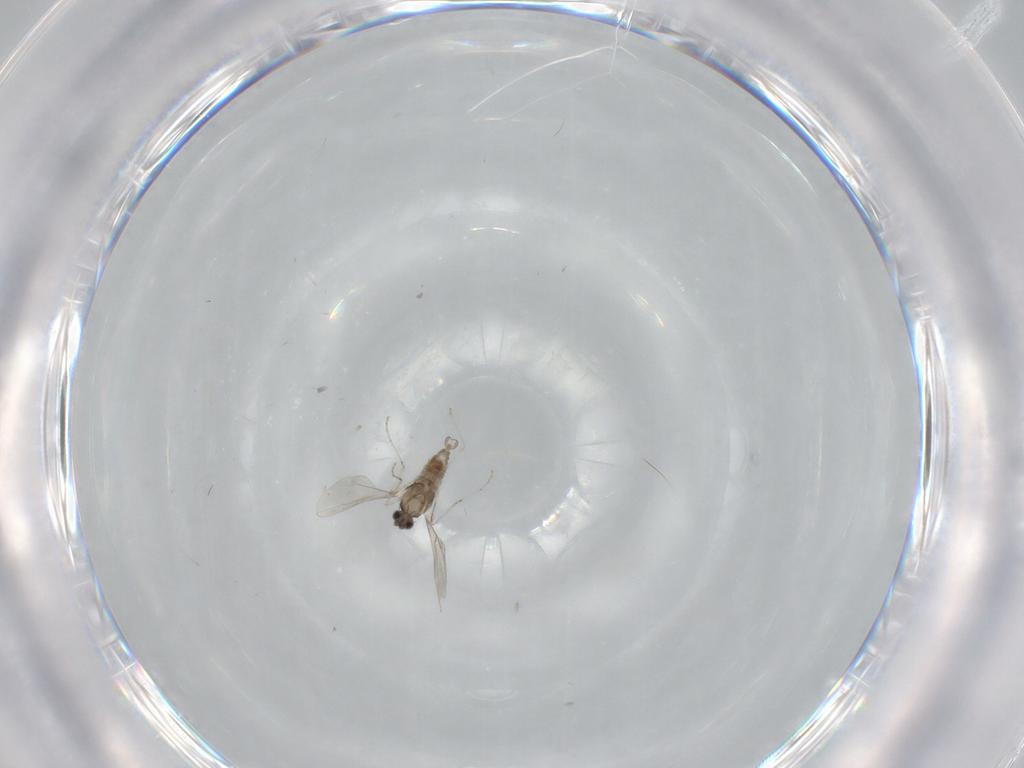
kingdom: Animalia
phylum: Arthropoda
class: Insecta
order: Diptera
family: Cecidomyiidae
